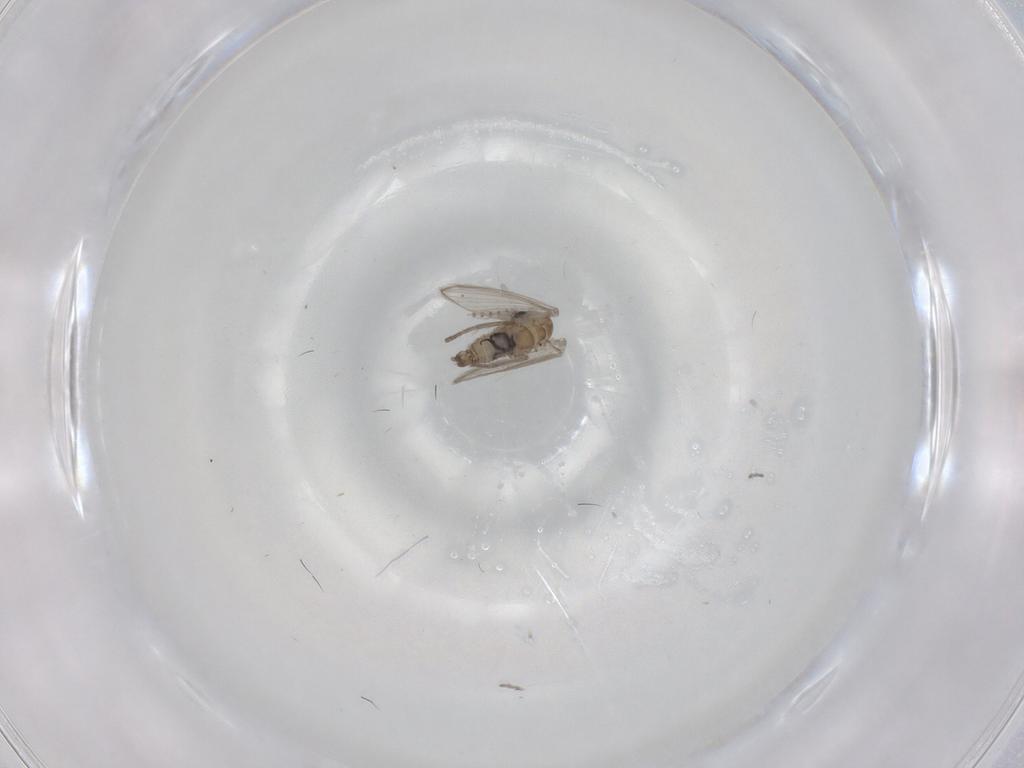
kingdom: Animalia
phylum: Arthropoda
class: Insecta
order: Diptera
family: Psychodidae
